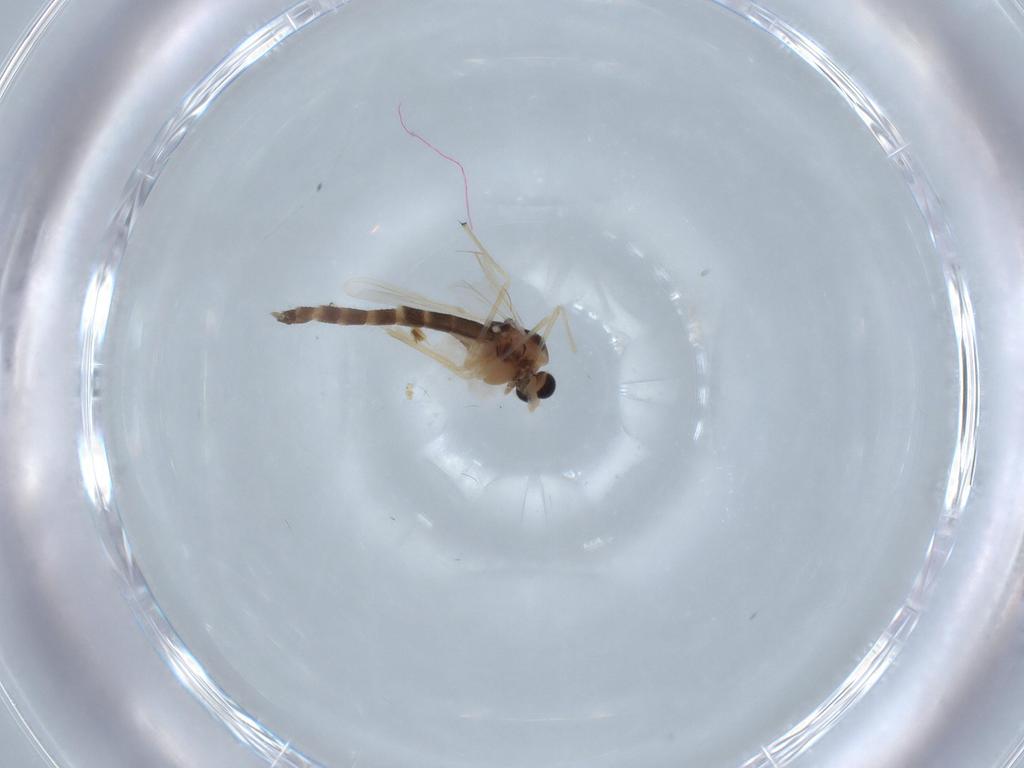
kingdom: Animalia
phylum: Arthropoda
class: Insecta
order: Diptera
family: Chironomidae
